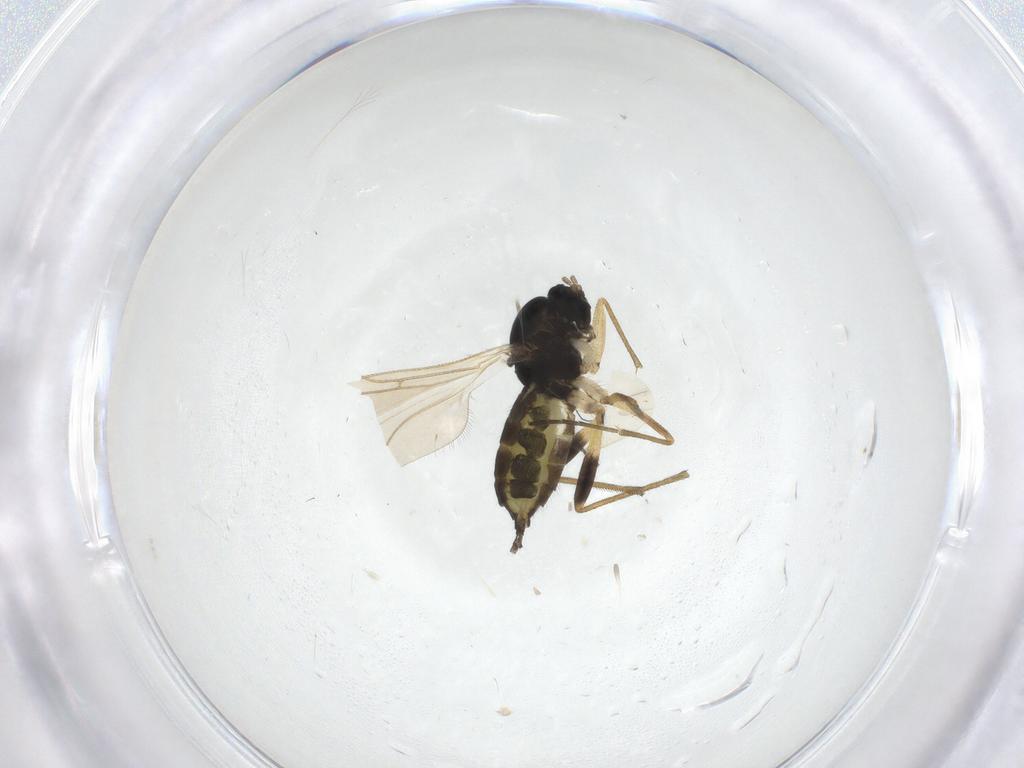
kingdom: Animalia
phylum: Arthropoda
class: Insecta
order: Diptera
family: Sciaridae
